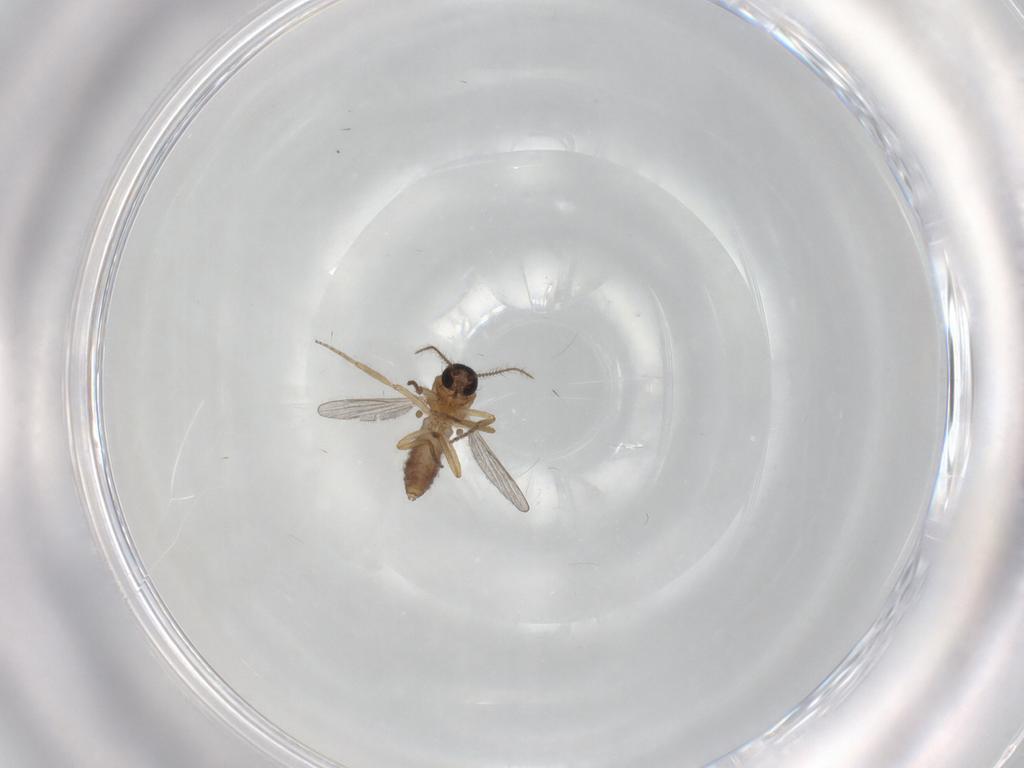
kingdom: Animalia
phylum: Arthropoda
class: Insecta
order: Diptera
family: Ceratopogonidae
